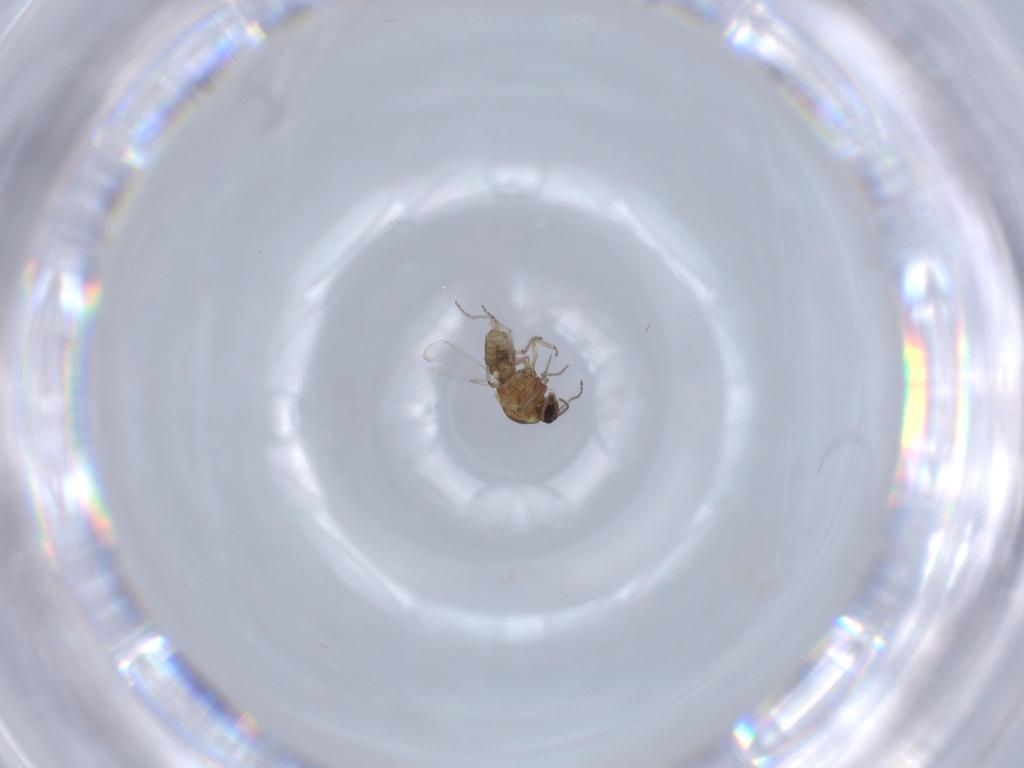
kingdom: Animalia
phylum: Arthropoda
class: Insecta
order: Diptera
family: Ceratopogonidae
